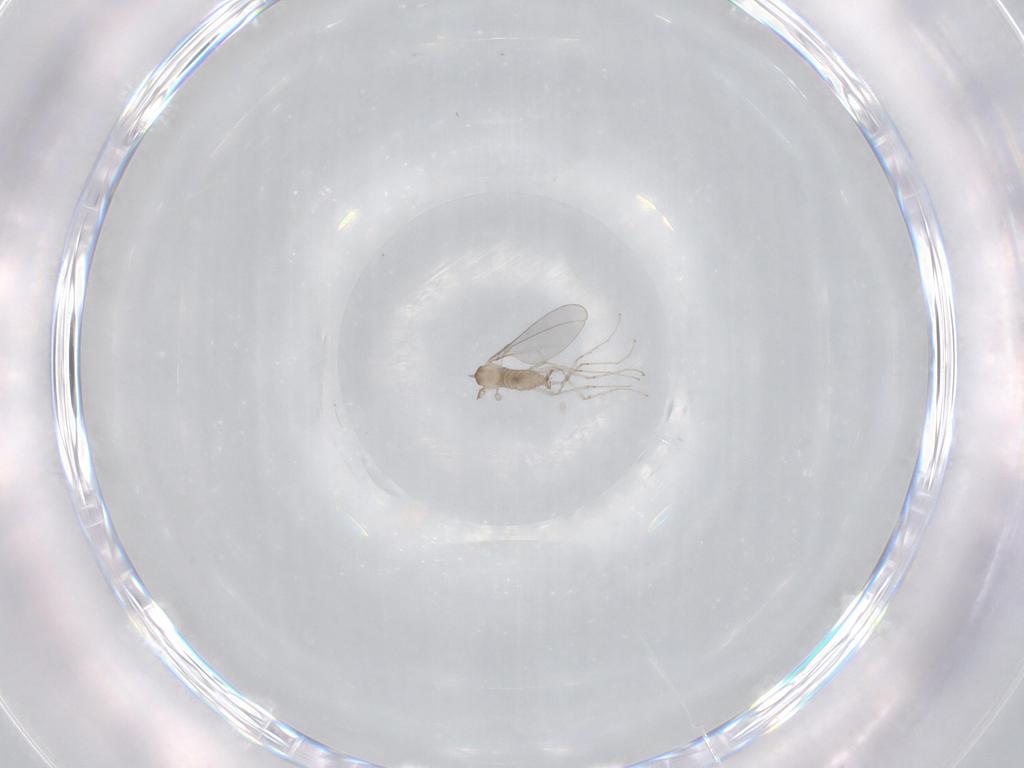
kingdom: Animalia
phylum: Arthropoda
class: Insecta
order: Diptera
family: Cecidomyiidae
